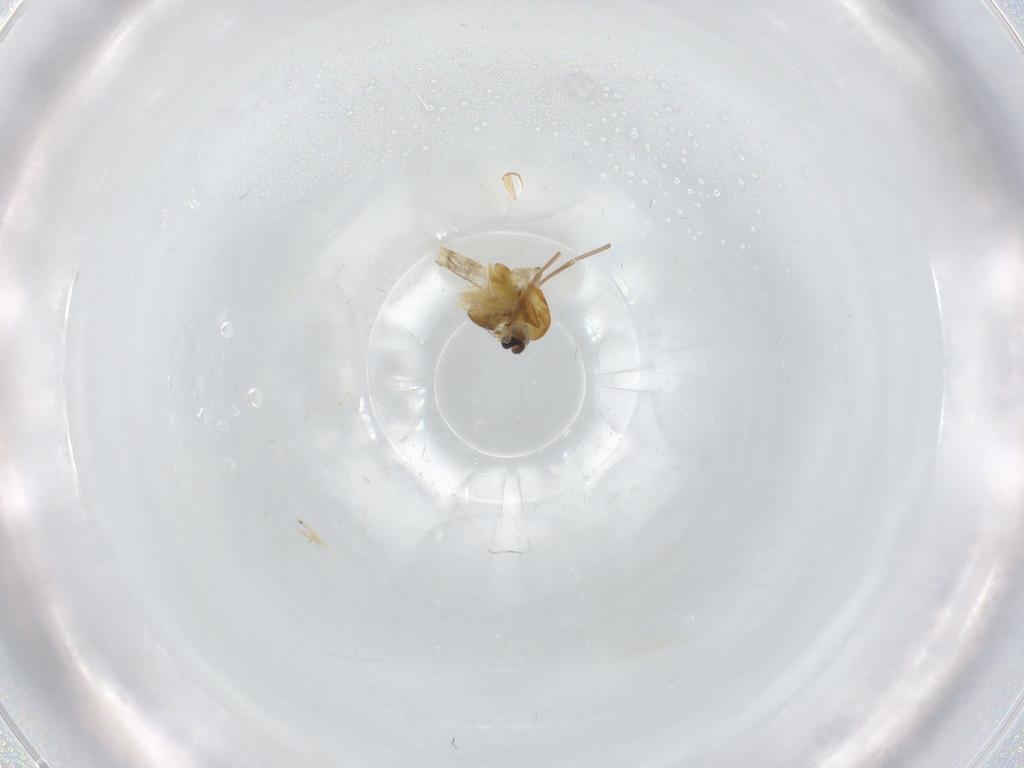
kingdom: Animalia
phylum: Arthropoda
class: Insecta
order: Diptera
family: Chironomidae
